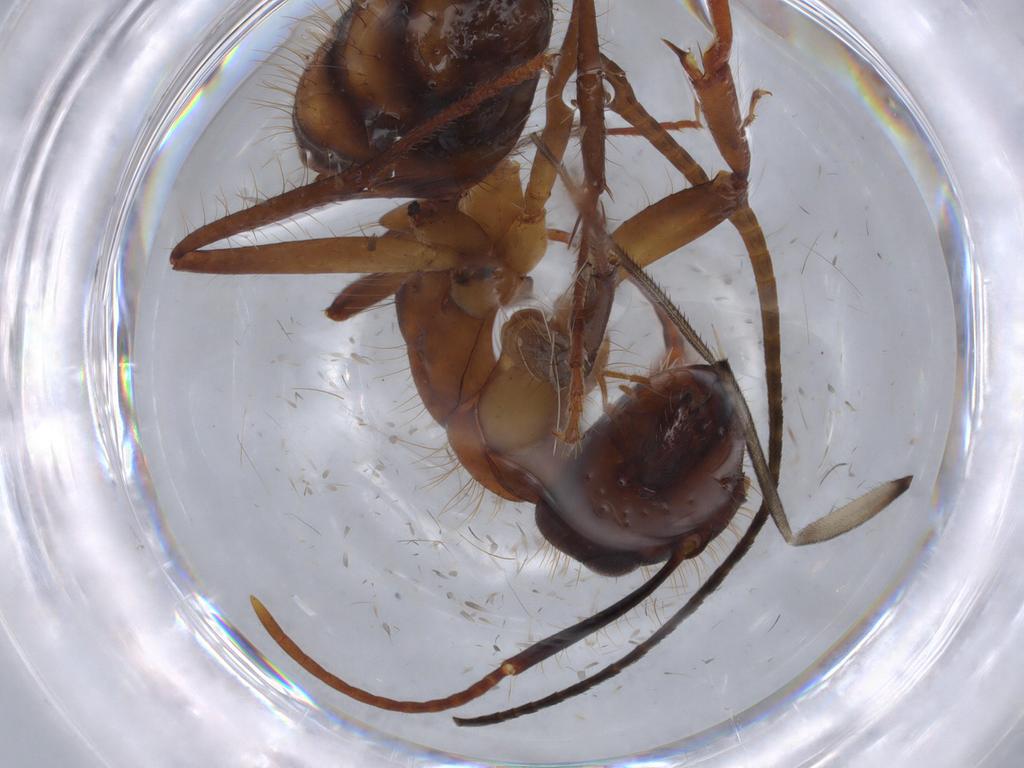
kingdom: Animalia
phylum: Arthropoda
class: Insecta
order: Hymenoptera
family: Formicidae
